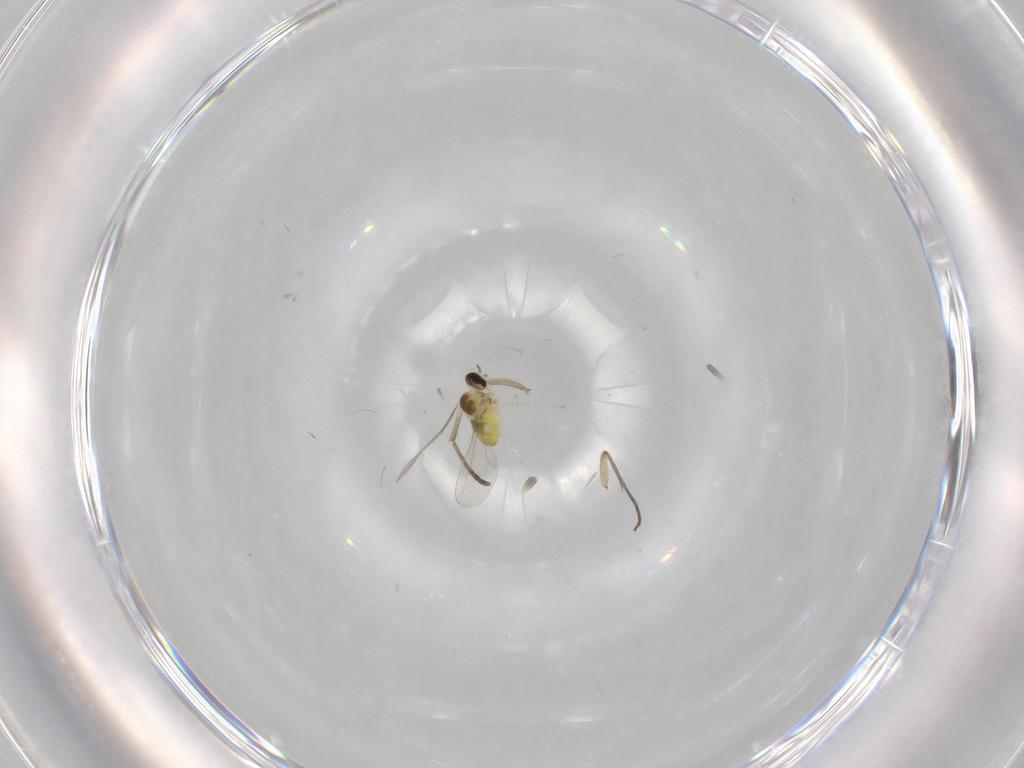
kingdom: Animalia
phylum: Arthropoda
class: Insecta
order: Diptera
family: Cecidomyiidae
